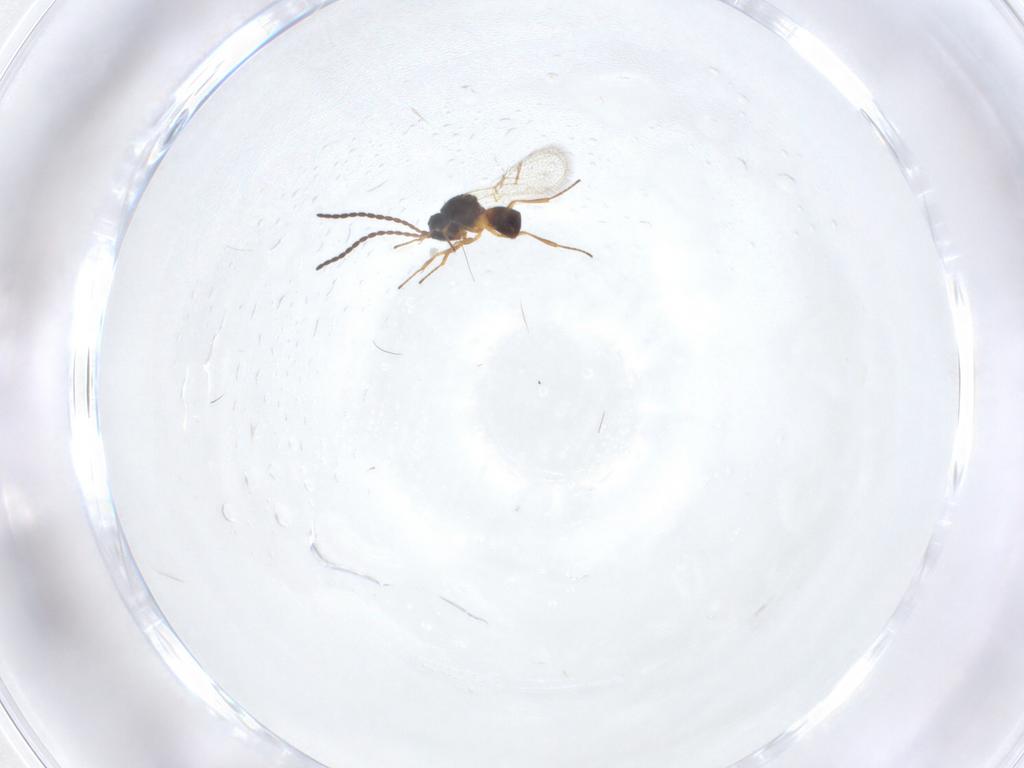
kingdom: Animalia
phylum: Arthropoda
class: Insecta
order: Hymenoptera
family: Figitidae
